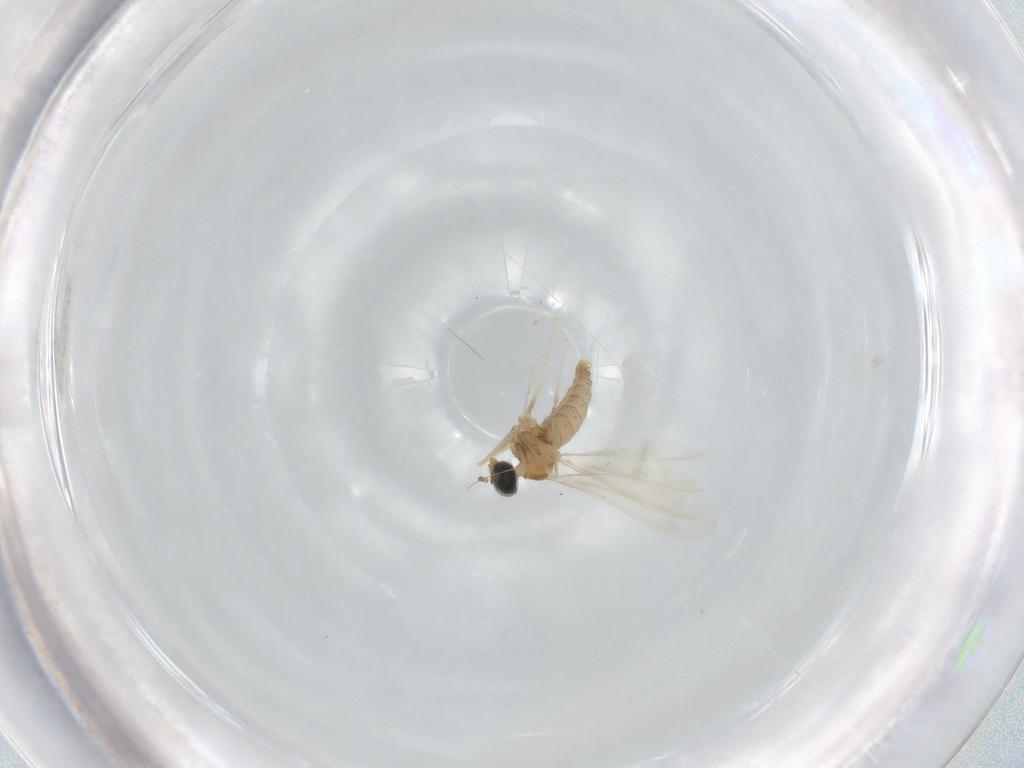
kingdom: Animalia
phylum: Arthropoda
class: Insecta
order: Diptera
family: Cecidomyiidae
